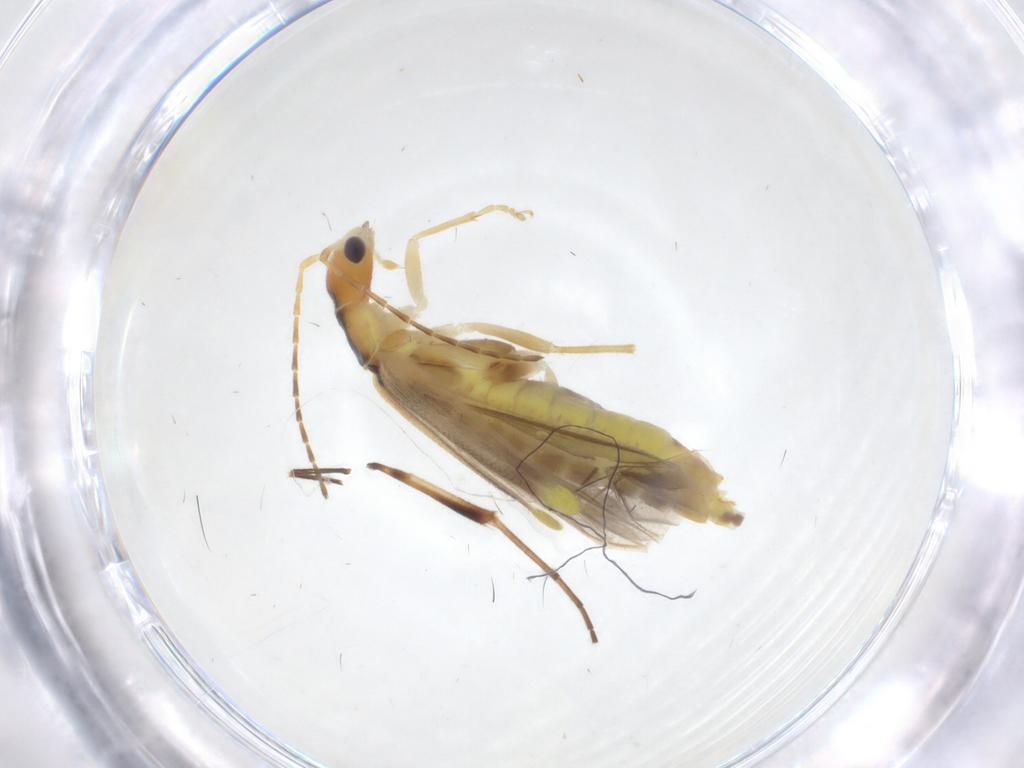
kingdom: Animalia
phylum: Arthropoda
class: Insecta
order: Coleoptera
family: Cantharidae
